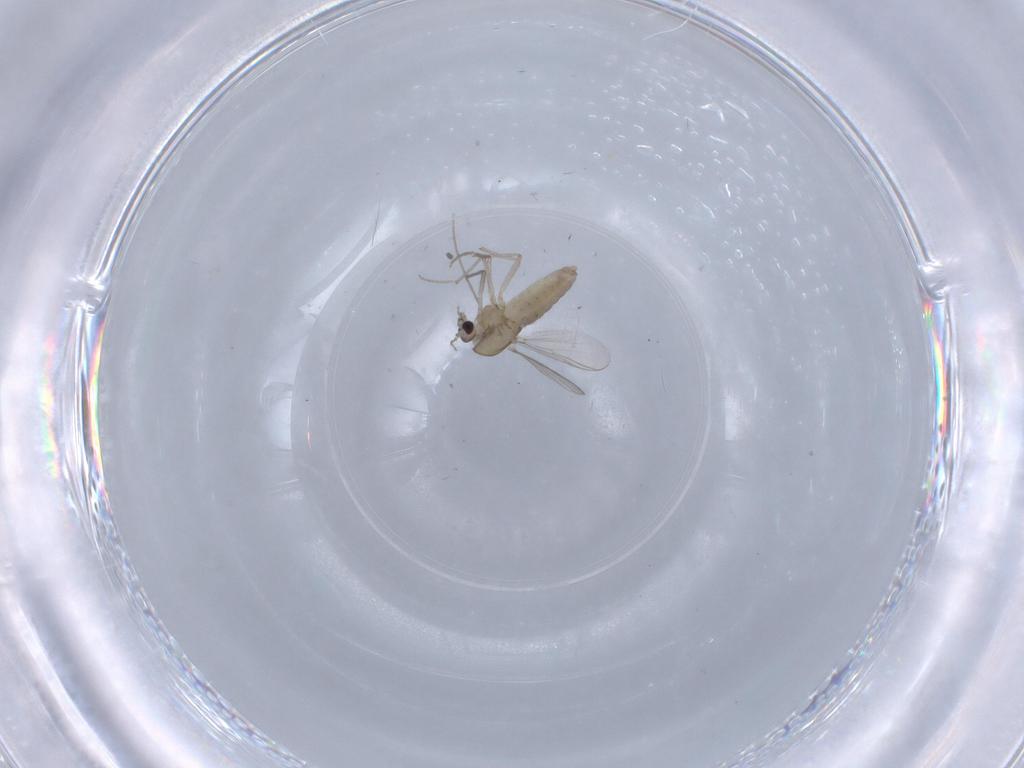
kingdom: Animalia
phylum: Arthropoda
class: Insecta
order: Diptera
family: Chironomidae
